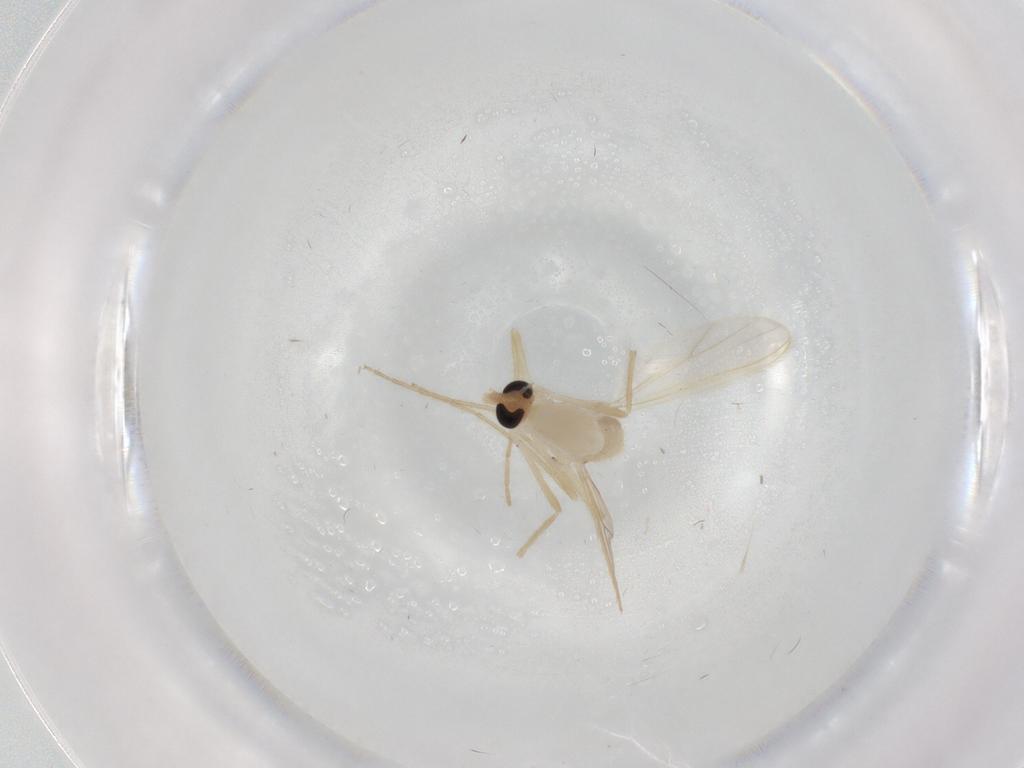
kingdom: Animalia
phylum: Arthropoda
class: Insecta
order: Diptera
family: Chironomidae
